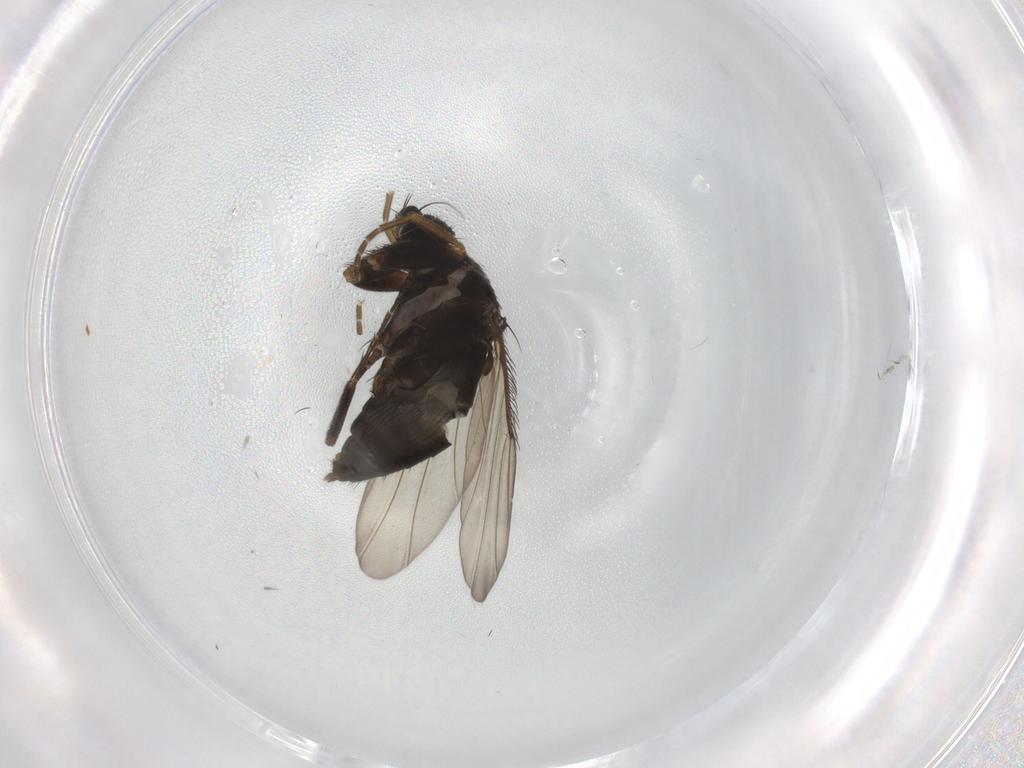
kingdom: Animalia
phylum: Arthropoda
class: Insecta
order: Diptera
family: Phoridae
